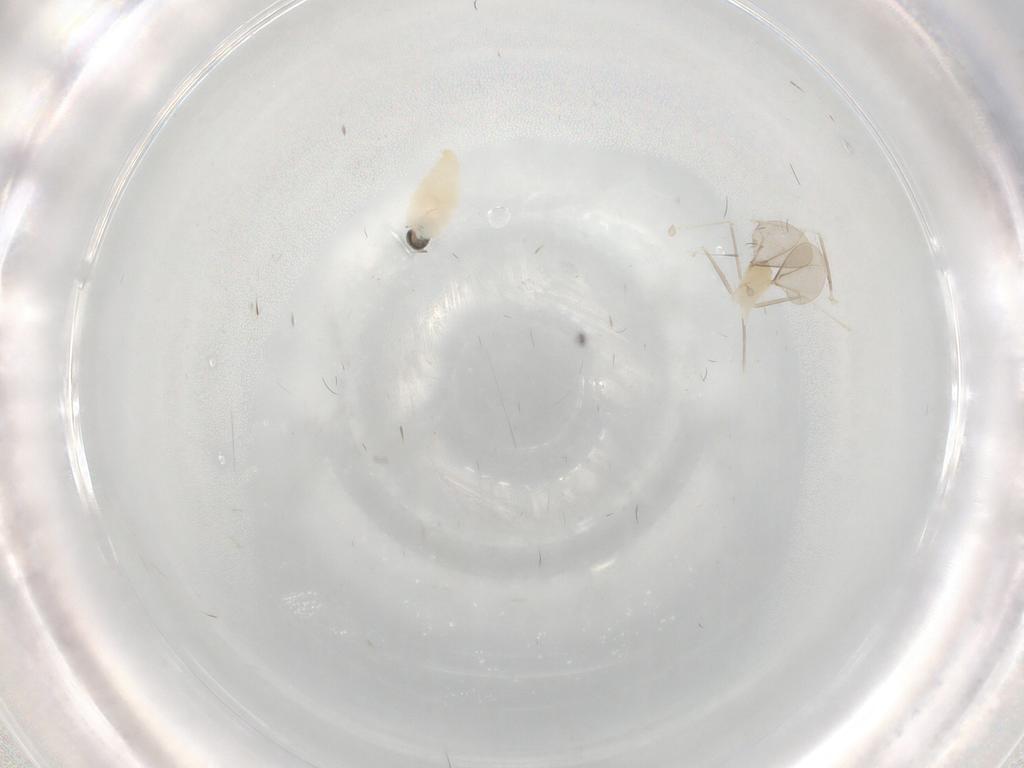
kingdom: Animalia
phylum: Arthropoda
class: Insecta
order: Diptera
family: Cecidomyiidae
